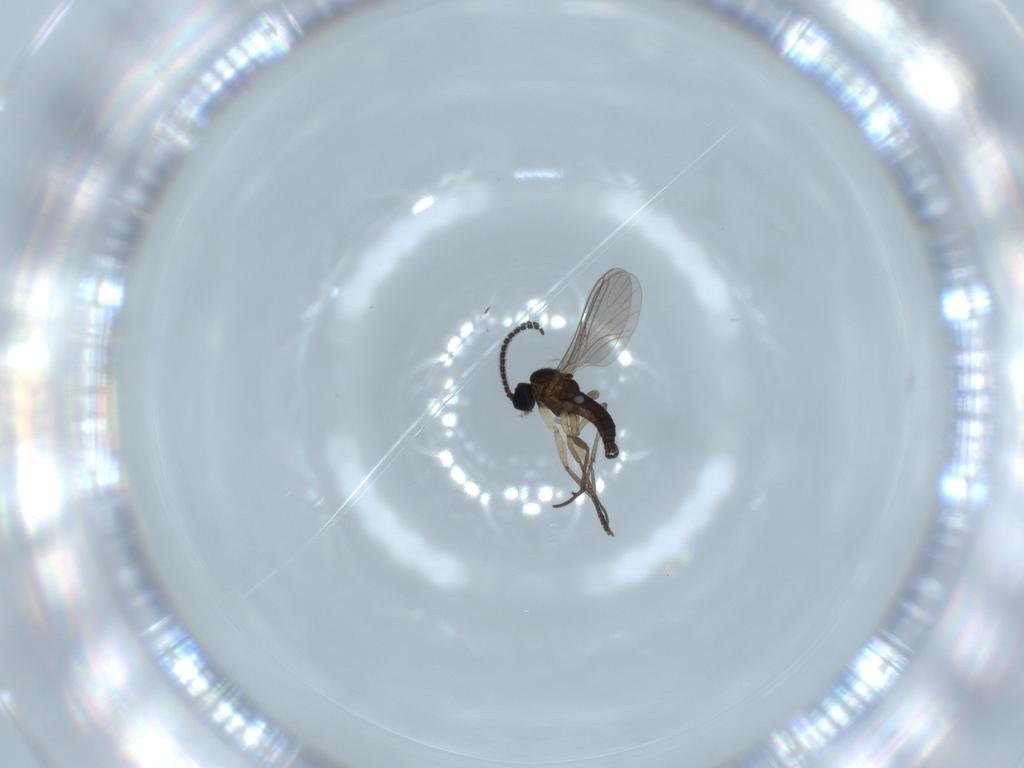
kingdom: Animalia
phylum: Arthropoda
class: Insecta
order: Diptera
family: Sciaridae
